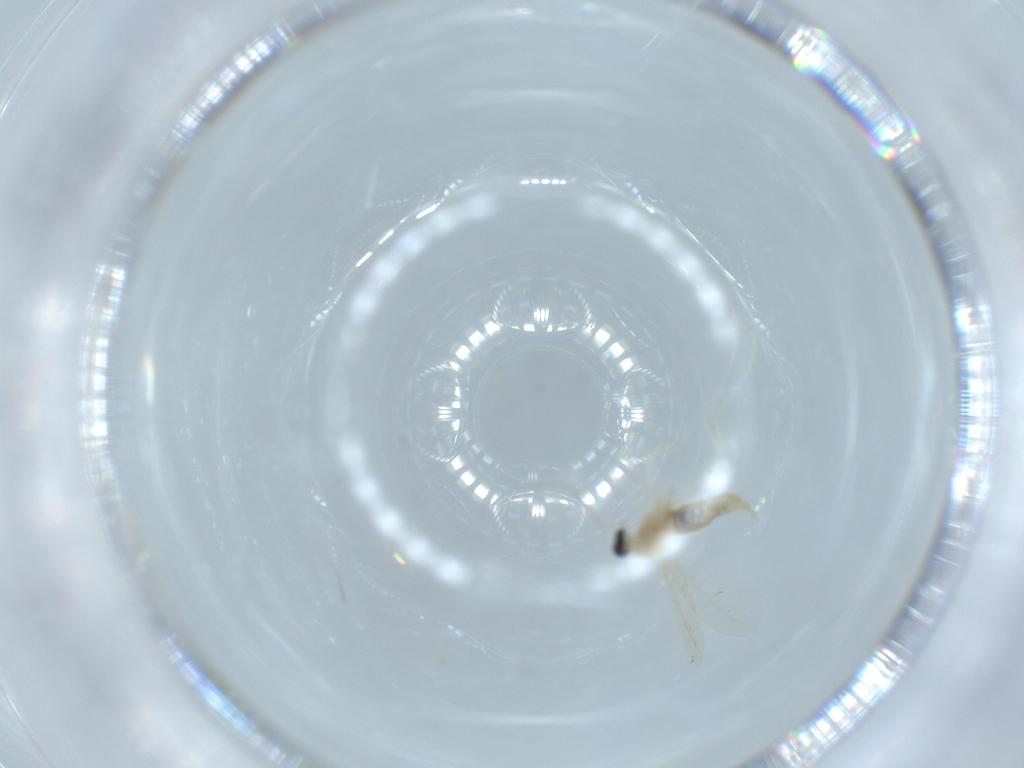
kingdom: Animalia
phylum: Arthropoda
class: Insecta
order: Diptera
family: Cecidomyiidae
